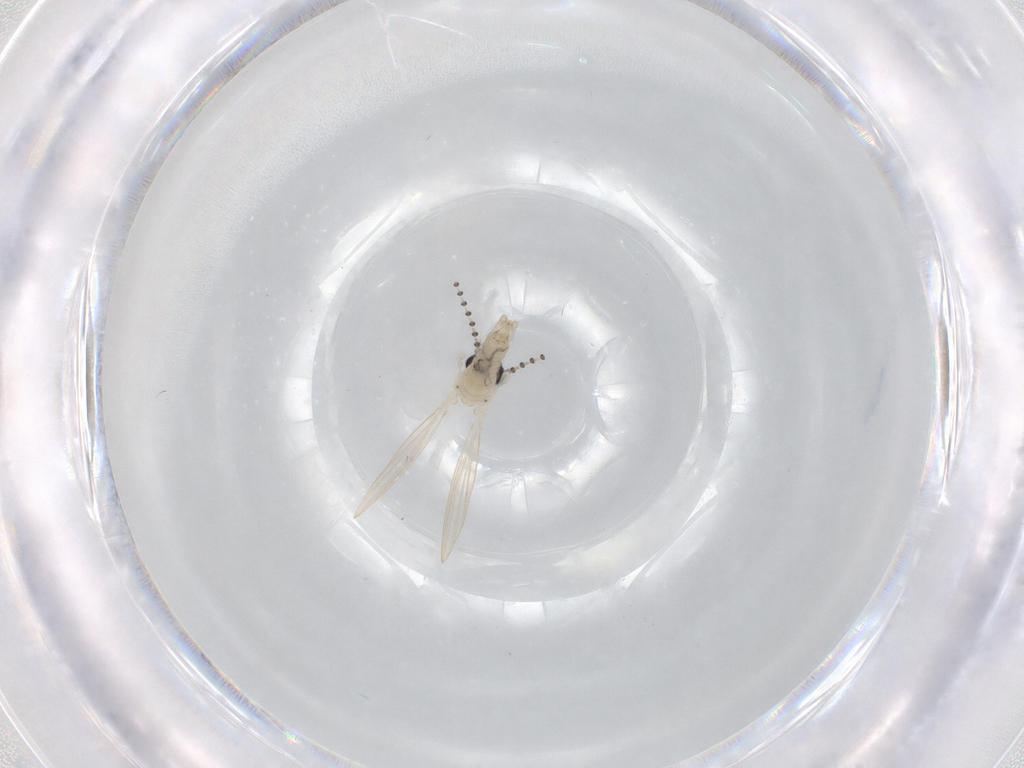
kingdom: Animalia
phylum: Arthropoda
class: Insecta
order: Diptera
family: Psychodidae
